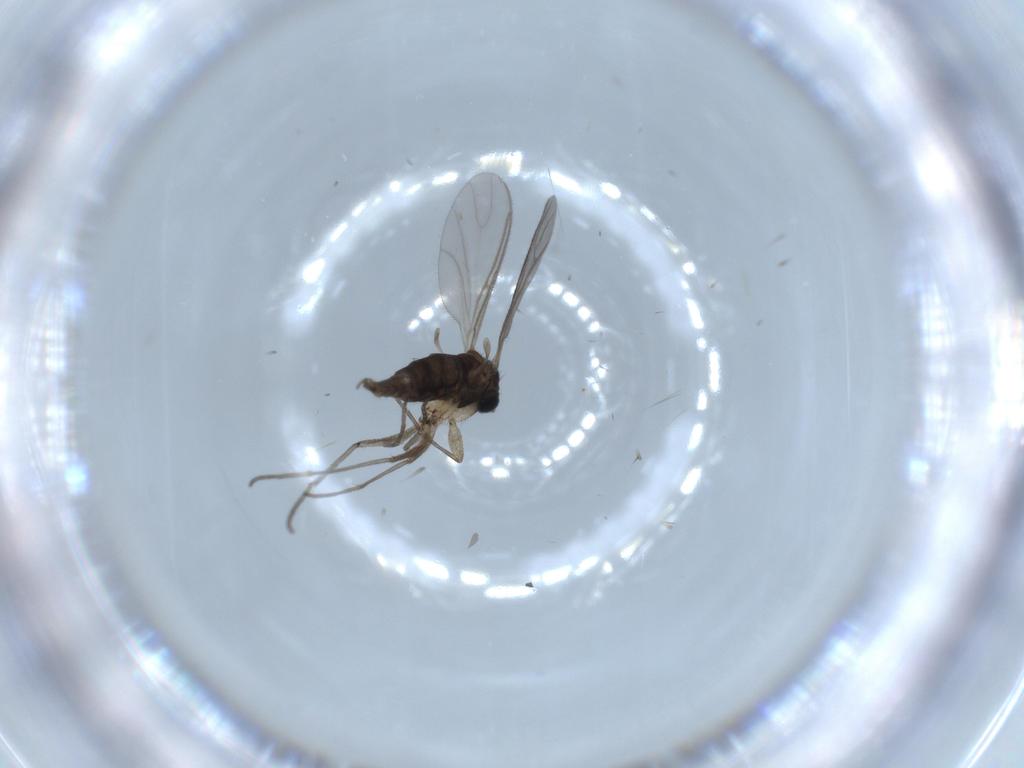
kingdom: Animalia
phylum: Arthropoda
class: Insecta
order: Diptera
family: Sciaridae
